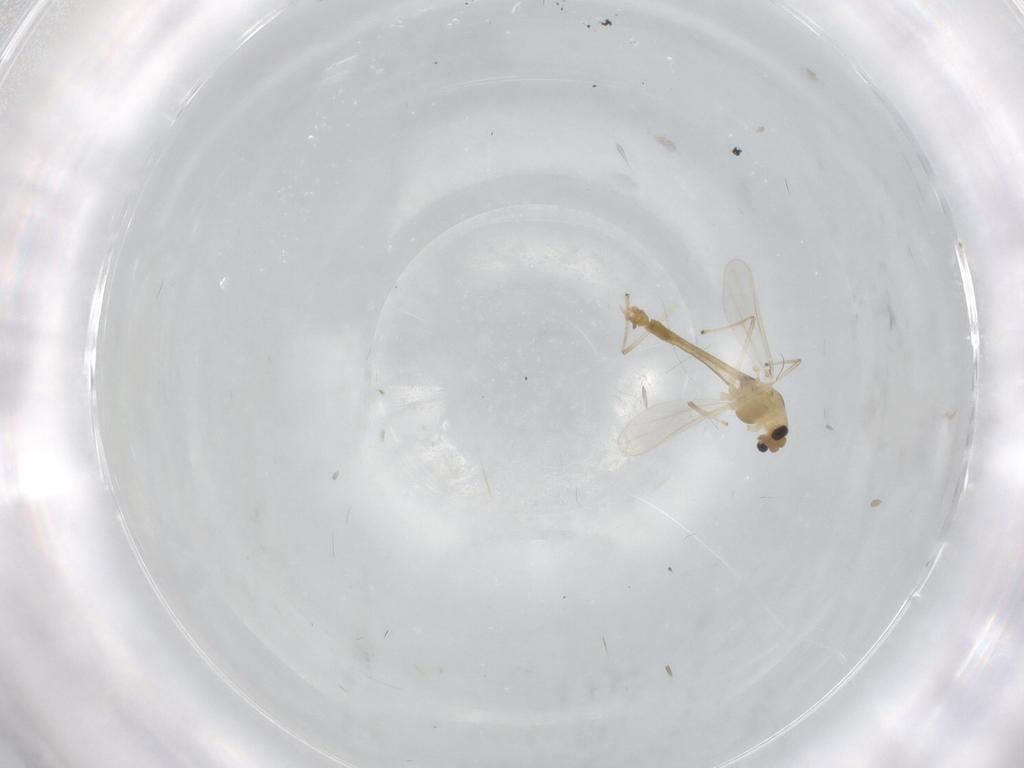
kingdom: Animalia
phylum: Arthropoda
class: Insecta
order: Diptera
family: Chironomidae
